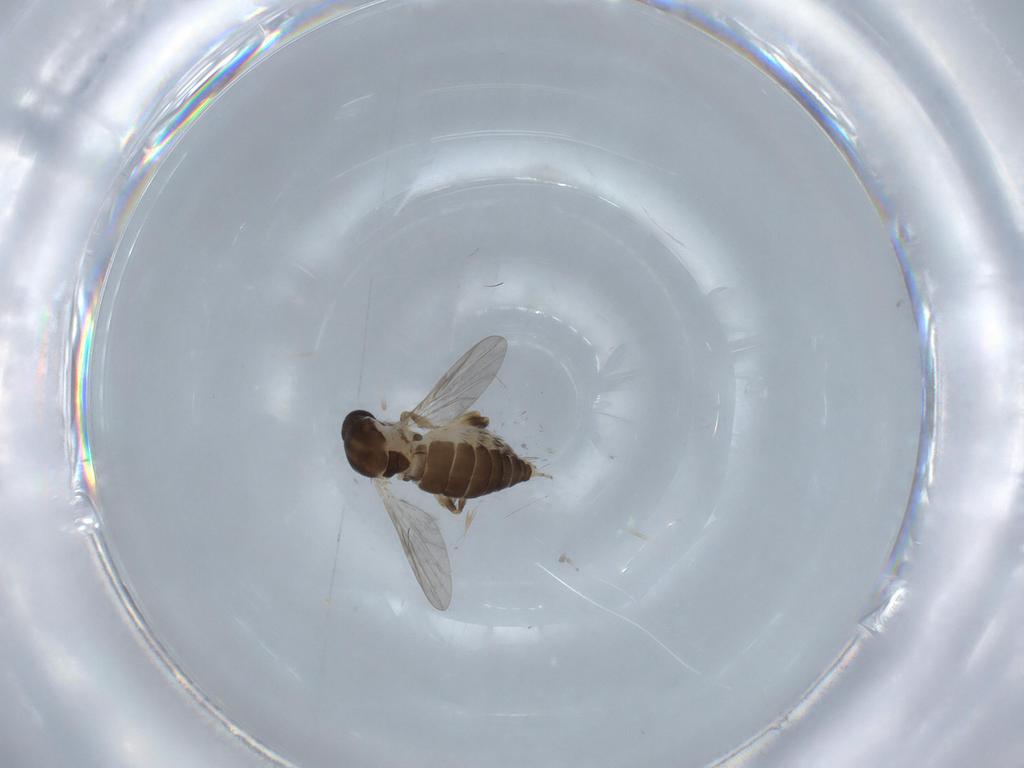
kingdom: Animalia
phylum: Arthropoda
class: Insecta
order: Diptera
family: Ceratopogonidae
